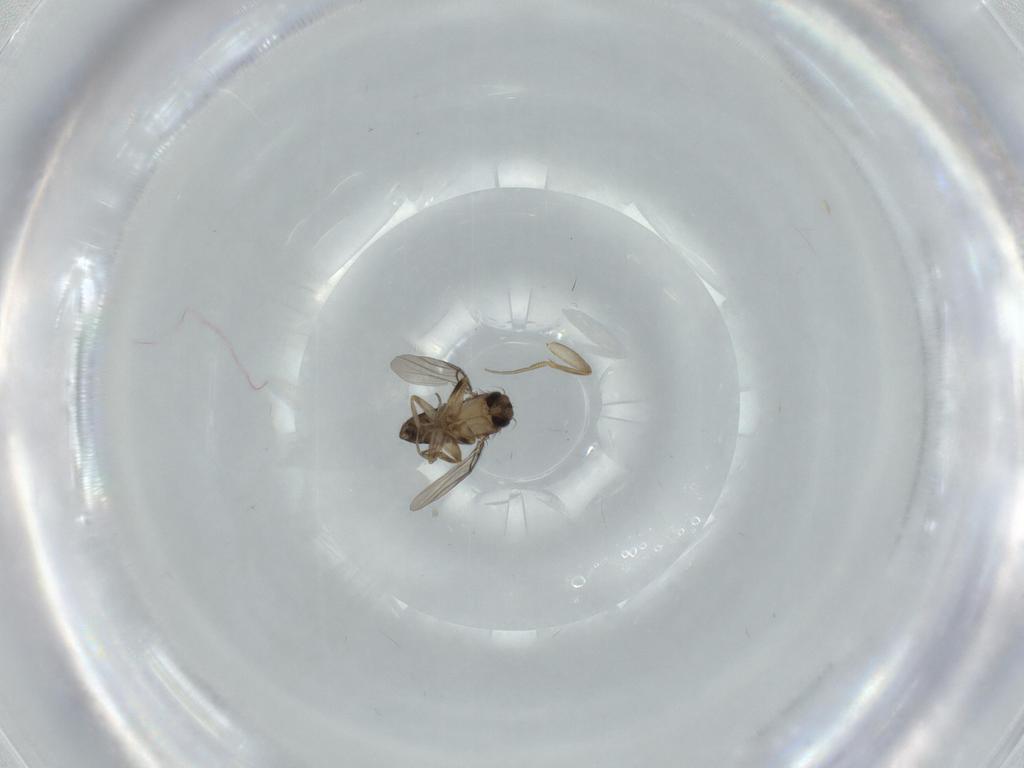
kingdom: Animalia
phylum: Arthropoda
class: Insecta
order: Diptera
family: Phoridae
